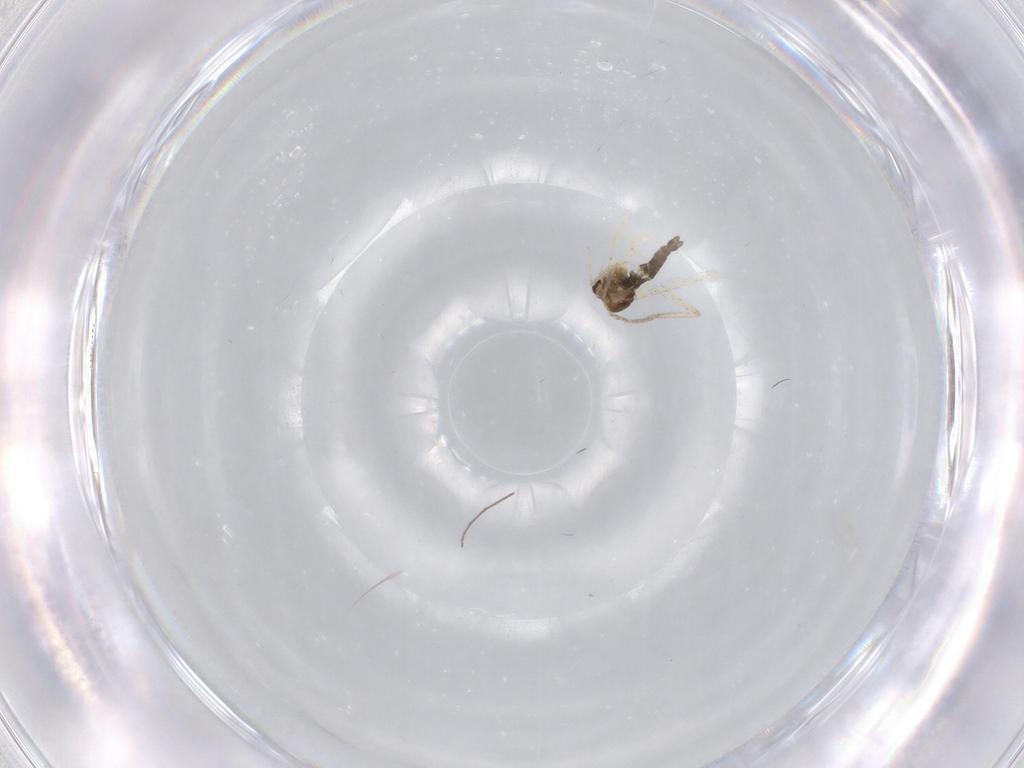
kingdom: Animalia
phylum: Arthropoda
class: Insecta
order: Diptera
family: Chironomidae
